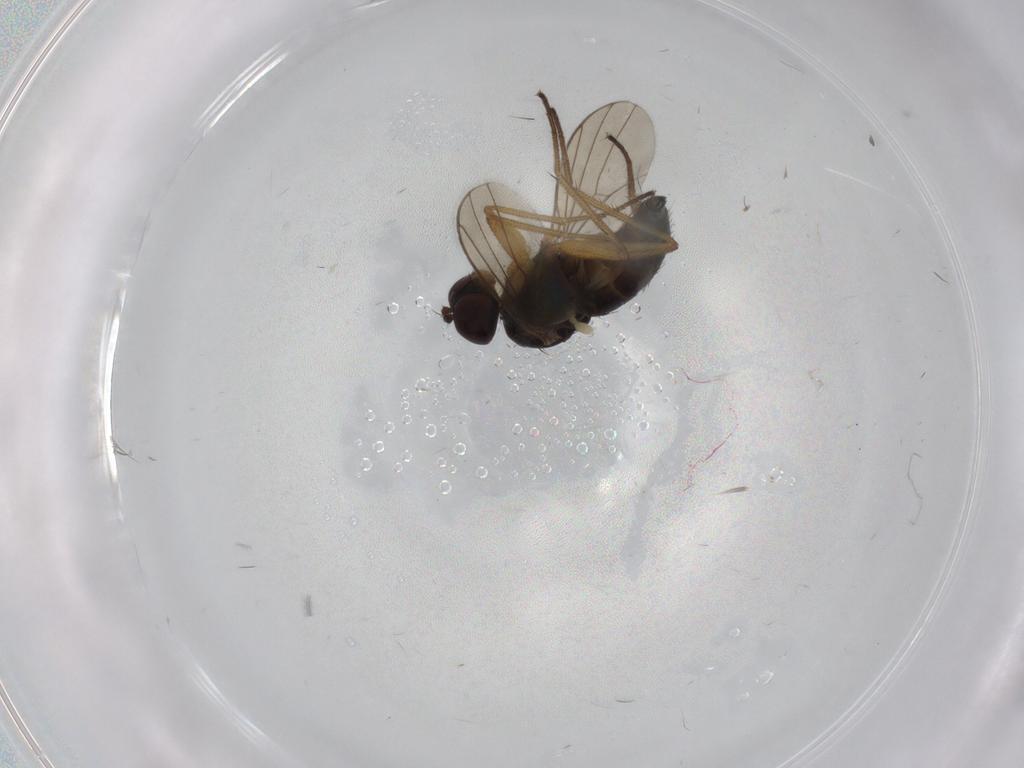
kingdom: Animalia
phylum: Arthropoda
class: Insecta
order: Diptera
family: Dolichopodidae
